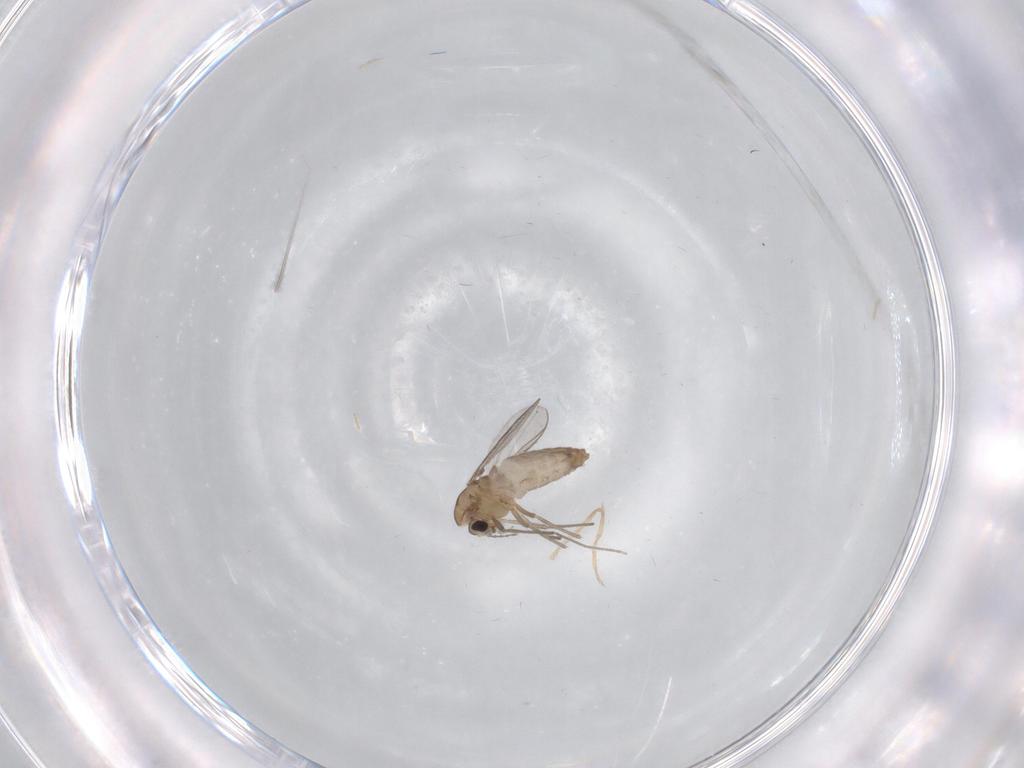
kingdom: Animalia
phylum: Arthropoda
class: Insecta
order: Diptera
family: Chironomidae
